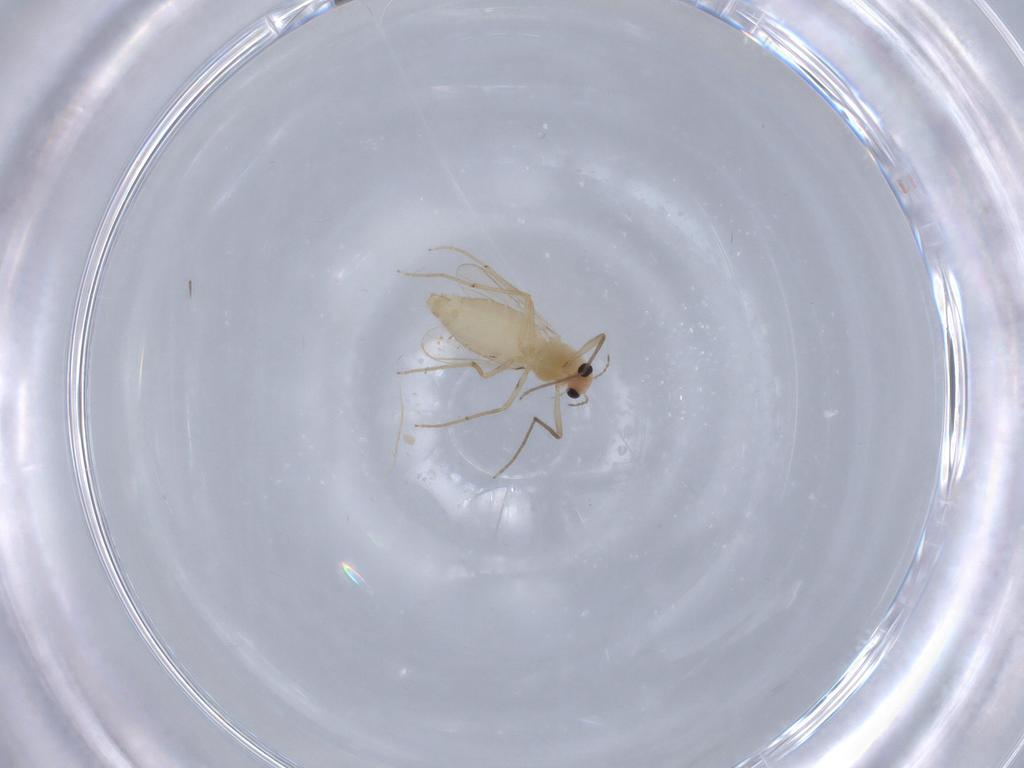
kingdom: Animalia
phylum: Arthropoda
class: Insecta
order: Diptera
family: Chironomidae
